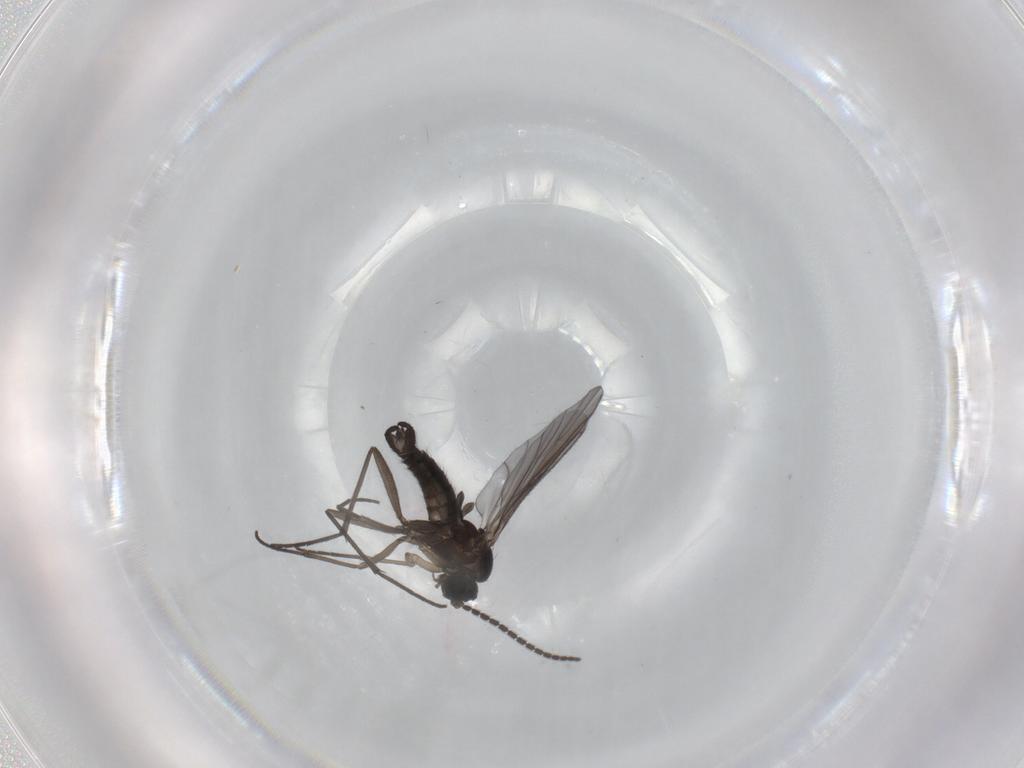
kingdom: Animalia
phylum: Arthropoda
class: Insecta
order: Diptera
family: Sciaridae
